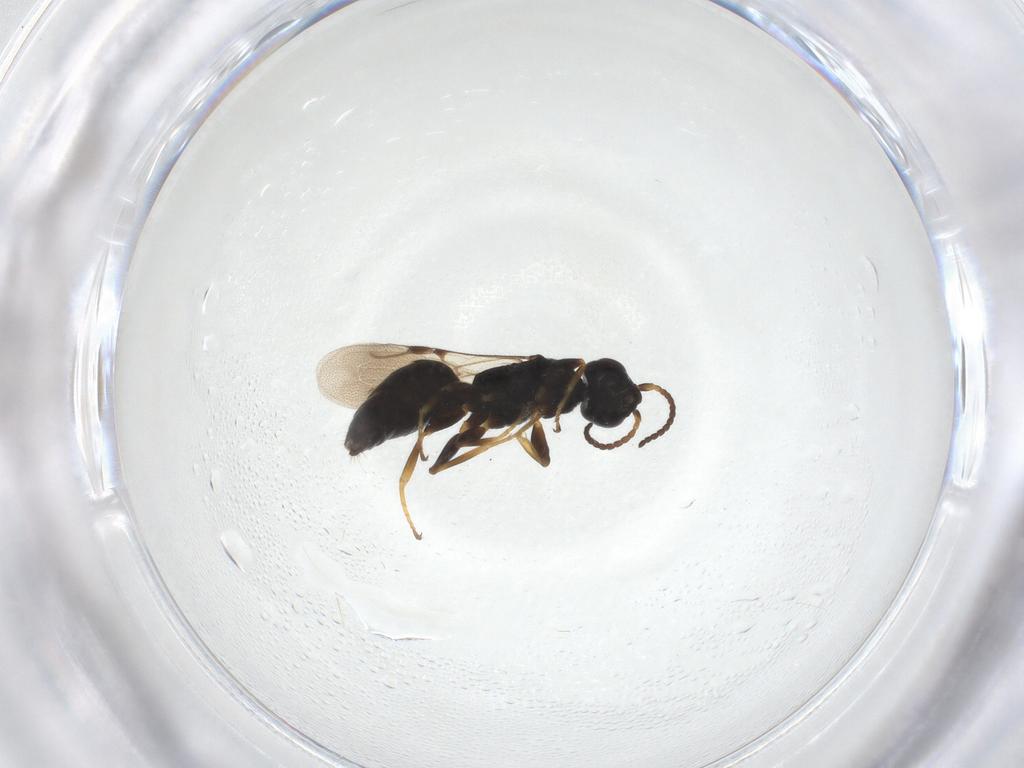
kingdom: Animalia
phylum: Arthropoda
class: Insecta
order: Hymenoptera
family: Bethylidae
